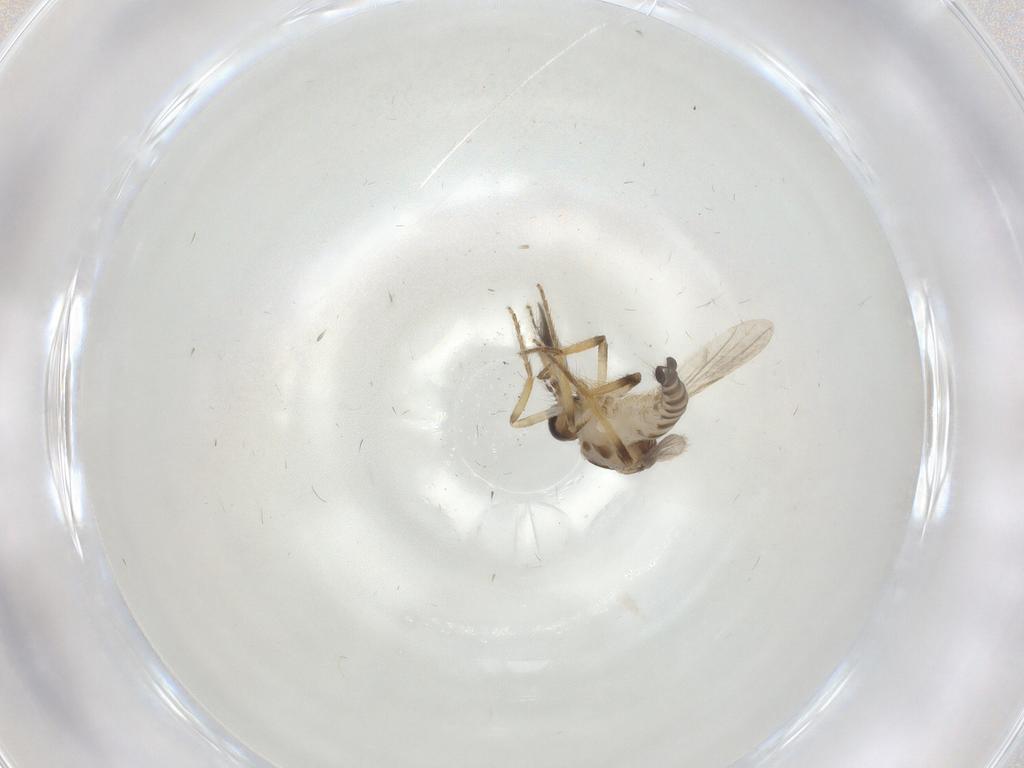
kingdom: Animalia
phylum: Arthropoda
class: Insecta
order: Diptera
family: Ceratopogonidae
